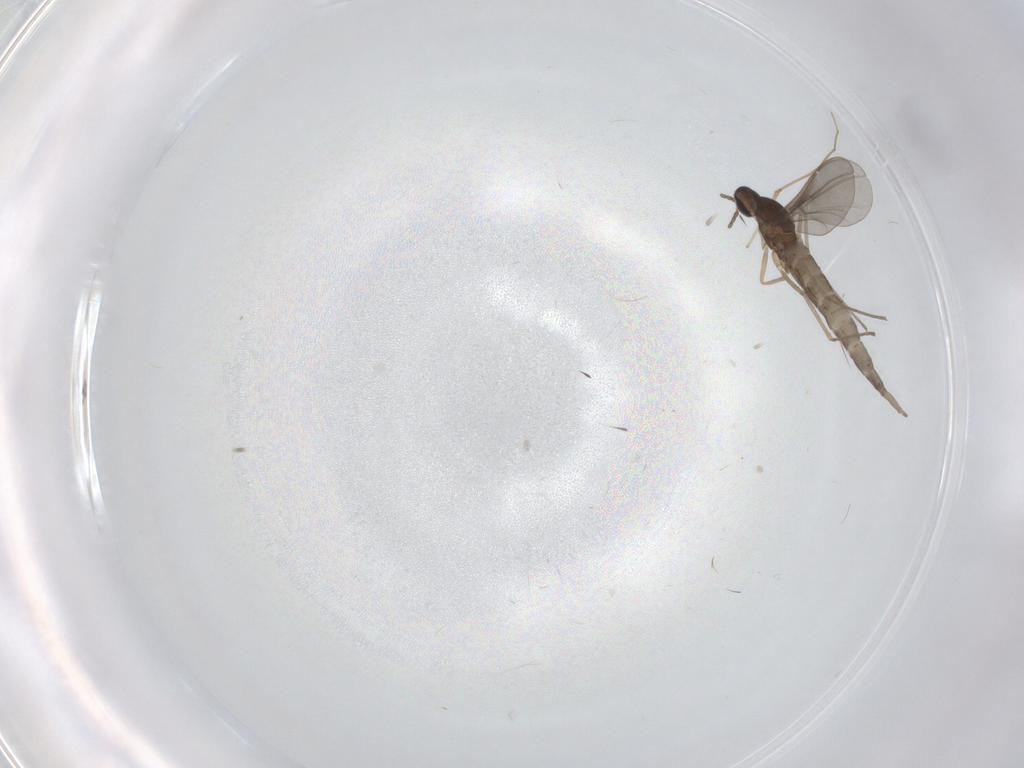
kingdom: Animalia
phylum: Arthropoda
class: Insecta
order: Diptera
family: Cecidomyiidae
